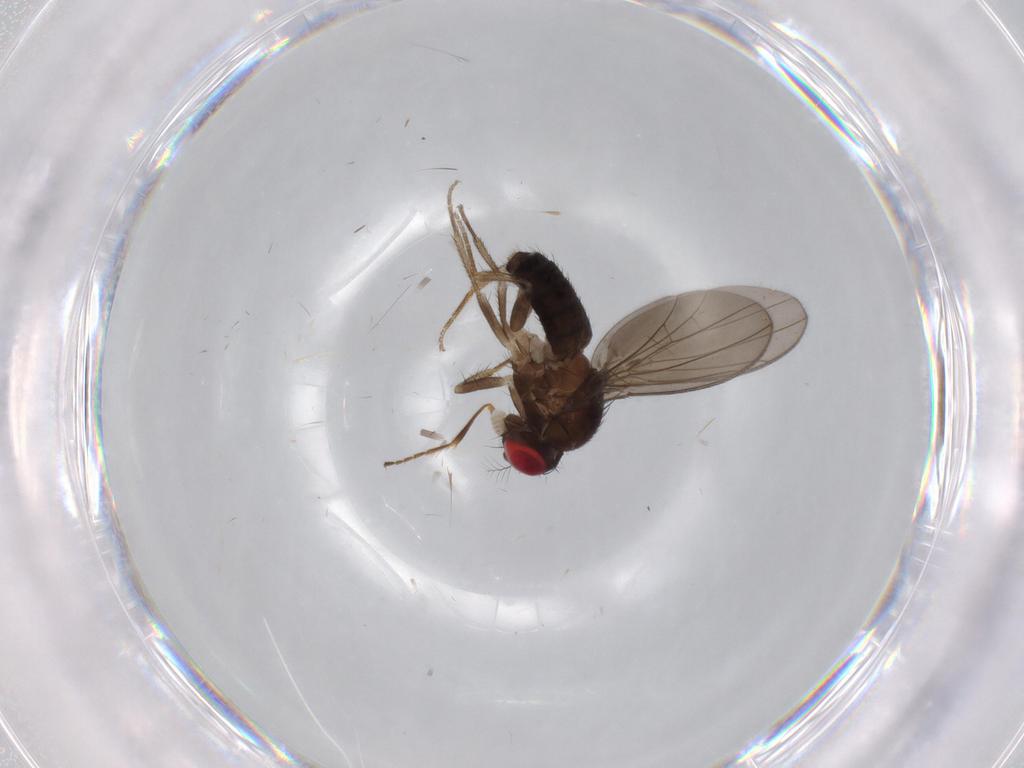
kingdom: Animalia
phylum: Arthropoda
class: Insecta
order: Diptera
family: Drosophilidae
